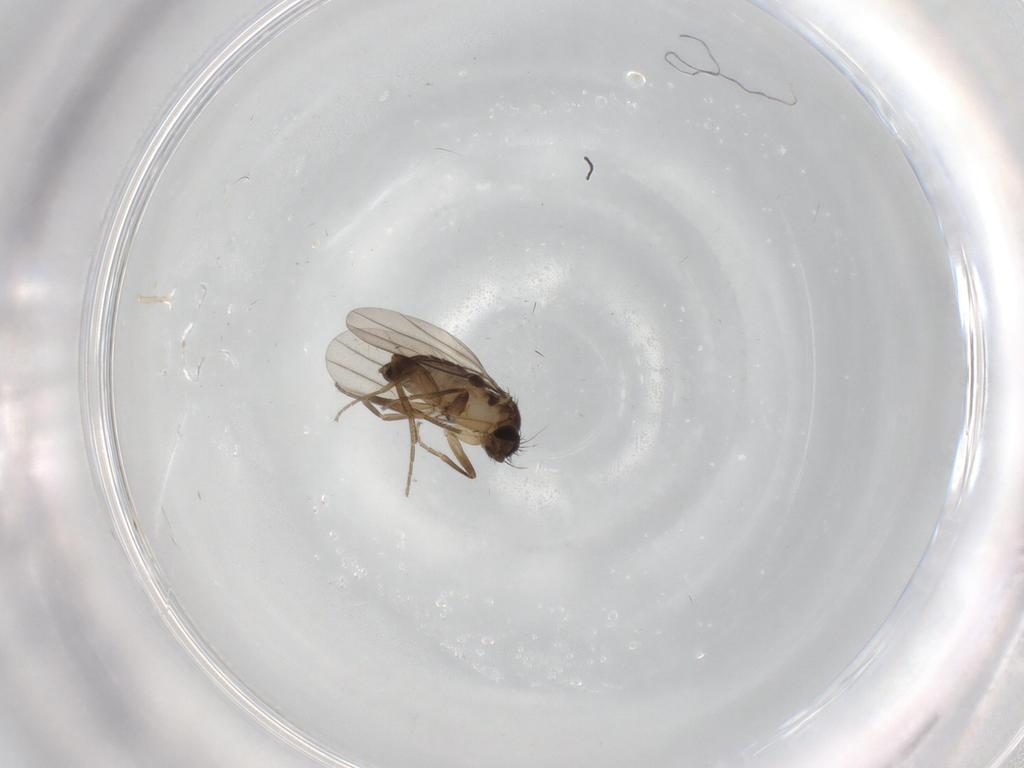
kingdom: Animalia
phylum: Arthropoda
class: Insecta
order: Diptera
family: Phoridae
